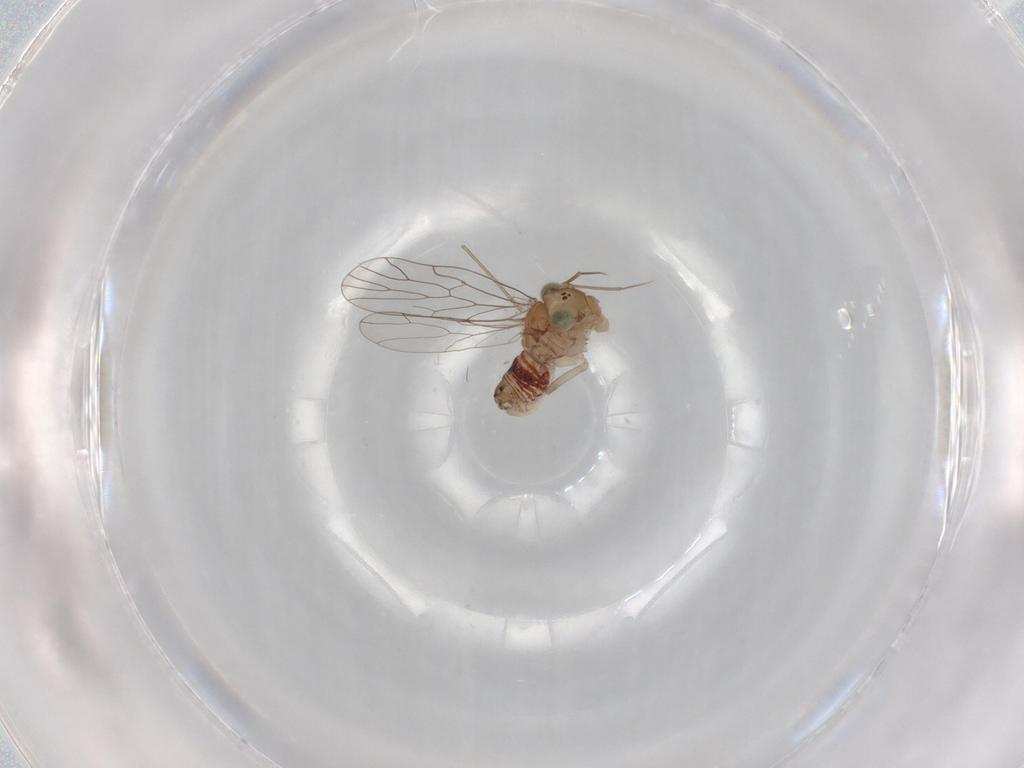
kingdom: Animalia
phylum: Arthropoda
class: Insecta
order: Psocodea
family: Amphientomidae
